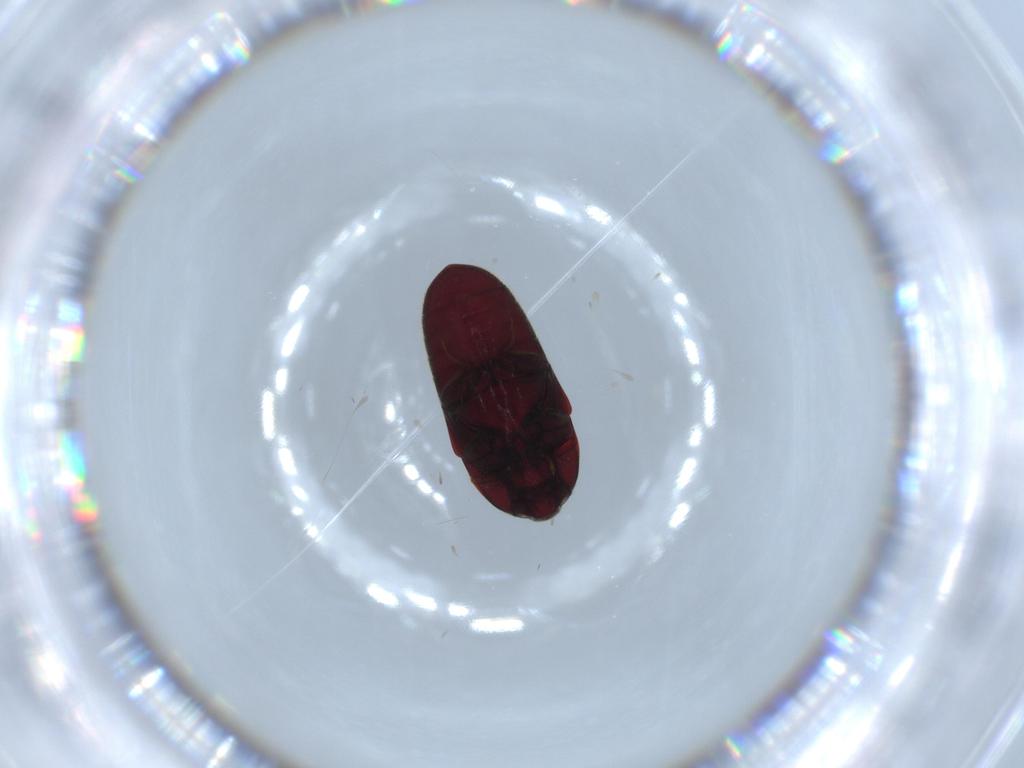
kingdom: Animalia
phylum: Arthropoda
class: Insecta
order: Coleoptera
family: Throscidae
